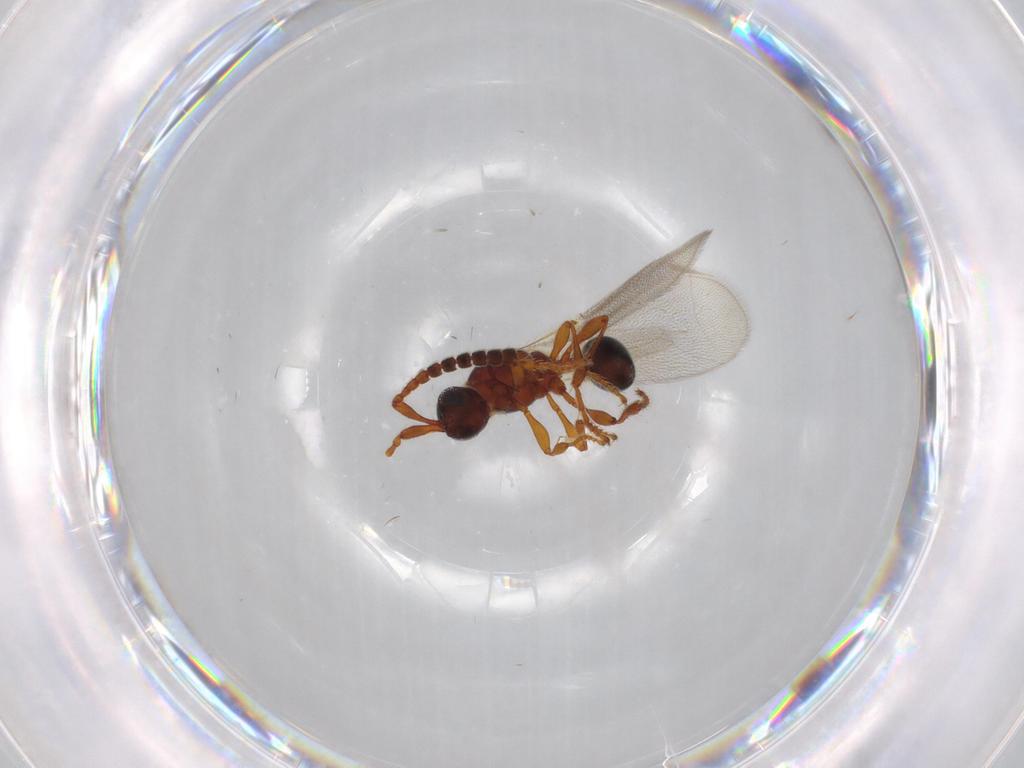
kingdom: Animalia
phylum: Arthropoda
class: Insecta
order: Hymenoptera
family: Diapriidae
